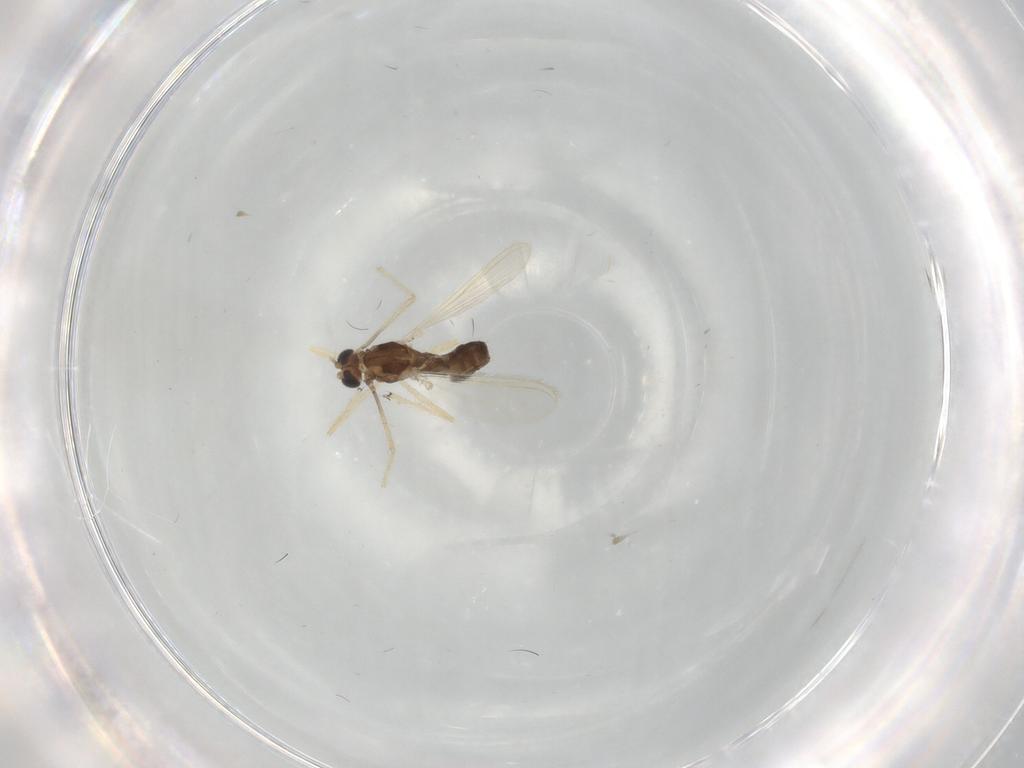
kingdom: Animalia
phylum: Arthropoda
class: Insecta
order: Diptera
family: Chironomidae
